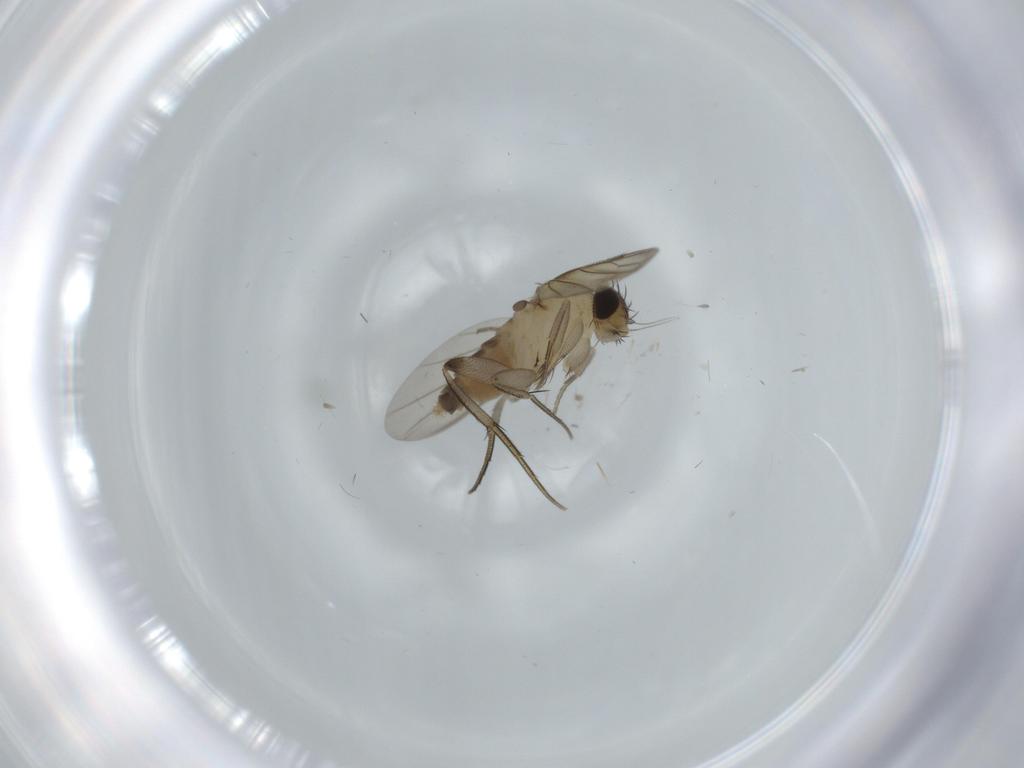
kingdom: Animalia
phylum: Arthropoda
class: Insecta
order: Diptera
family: Phoridae
